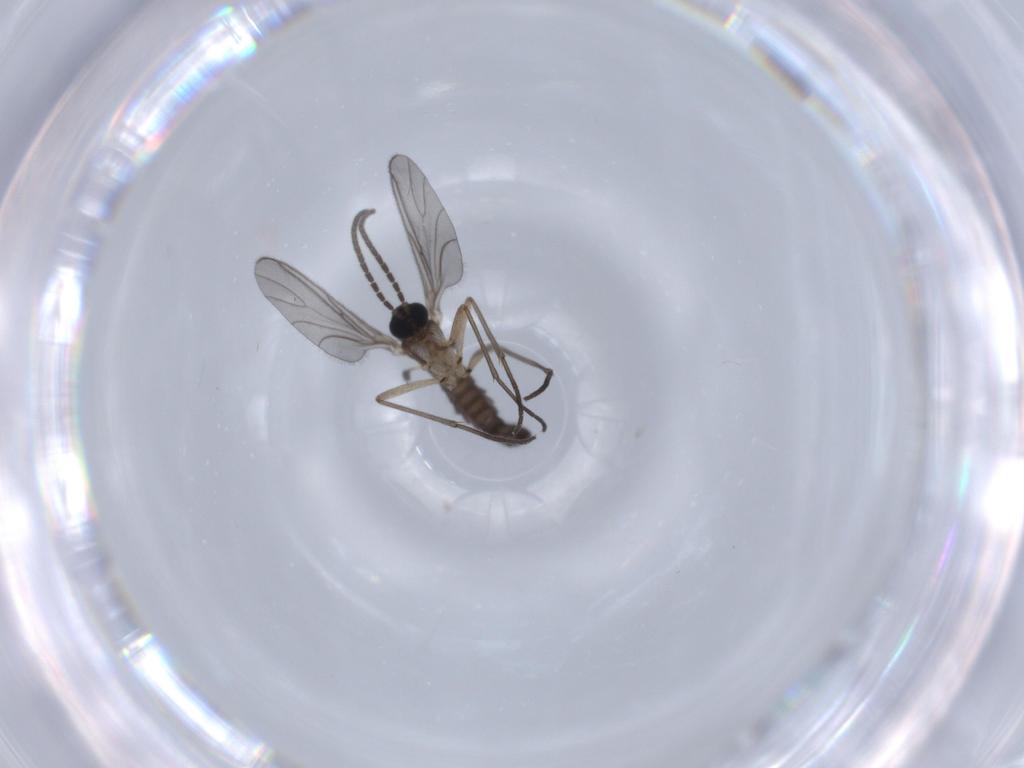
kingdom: Animalia
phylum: Arthropoda
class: Insecta
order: Diptera
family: Sciaridae
